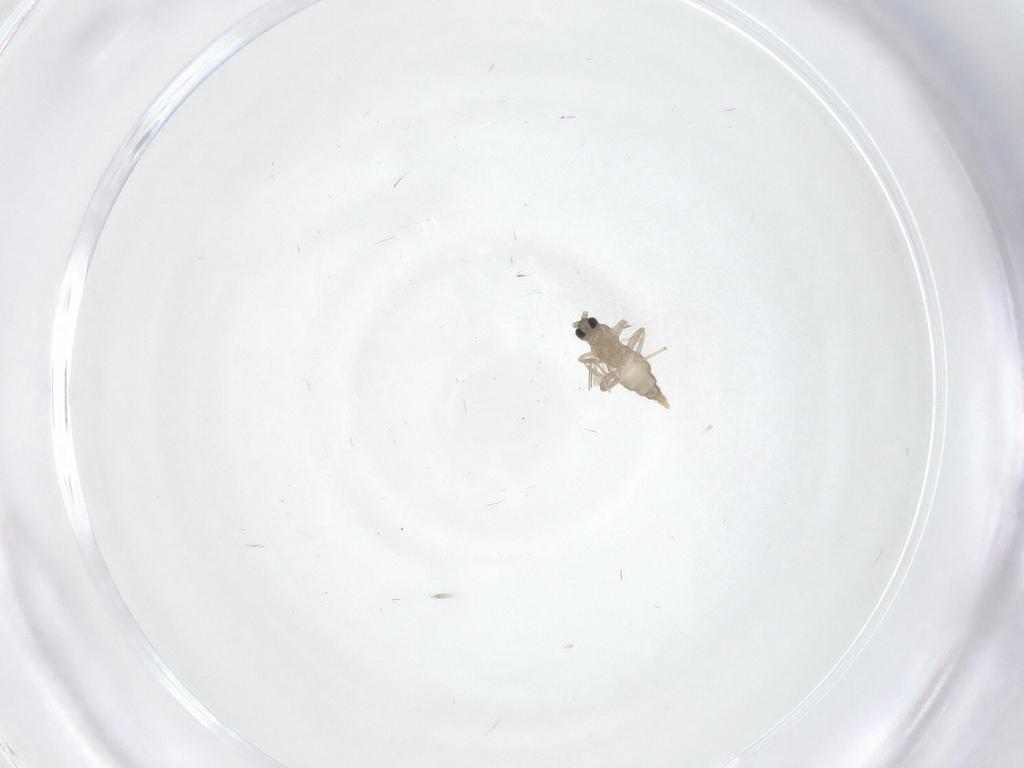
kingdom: Animalia
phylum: Arthropoda
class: Insecta
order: Diptera
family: Cecidomyiidae
